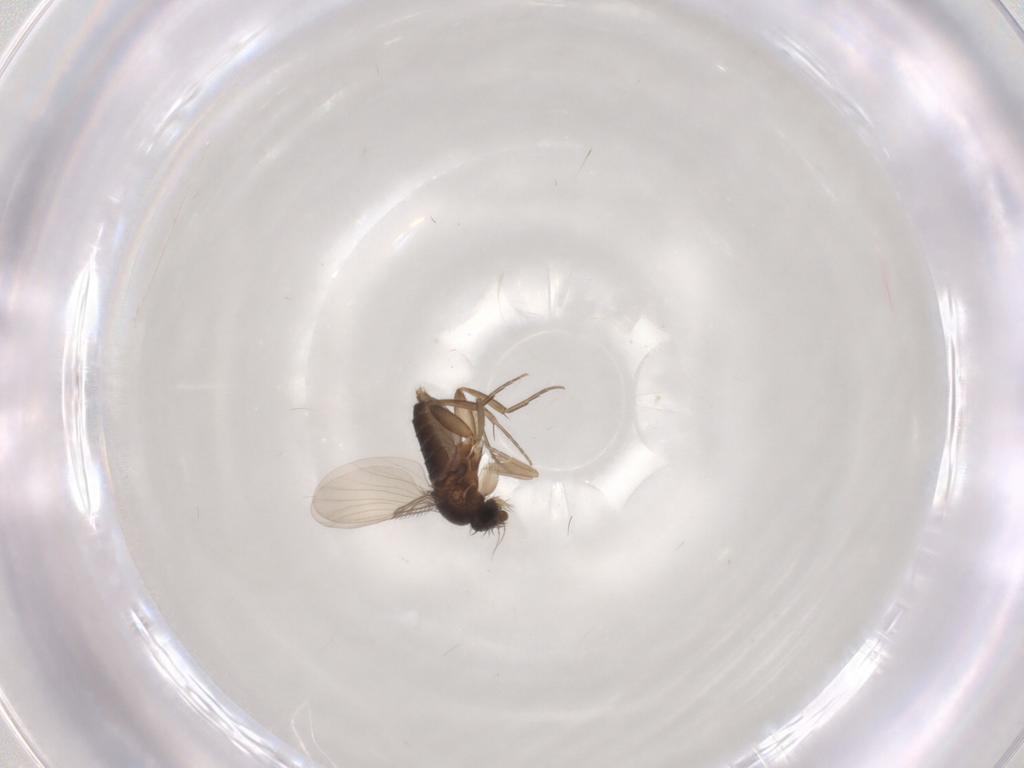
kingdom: Animalia
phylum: Arthropoda
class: Insecta
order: Diptera
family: Phoridae
